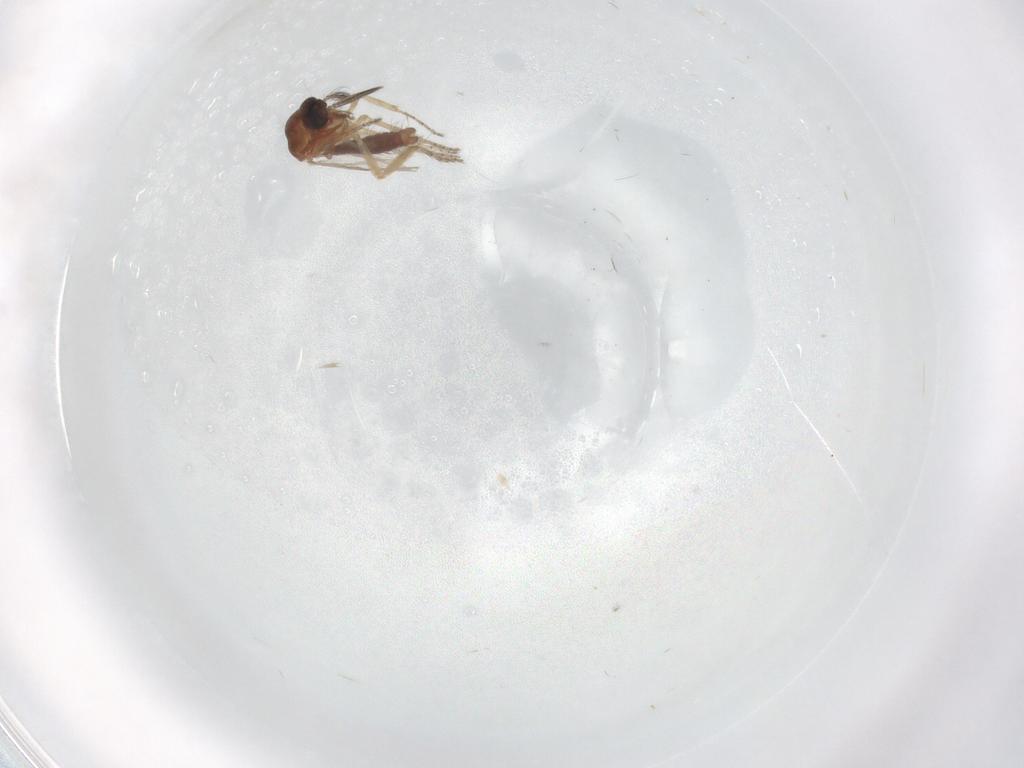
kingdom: Animalia
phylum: Arthropoda
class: Insecta
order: Diptera
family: Ceratopogonidae
